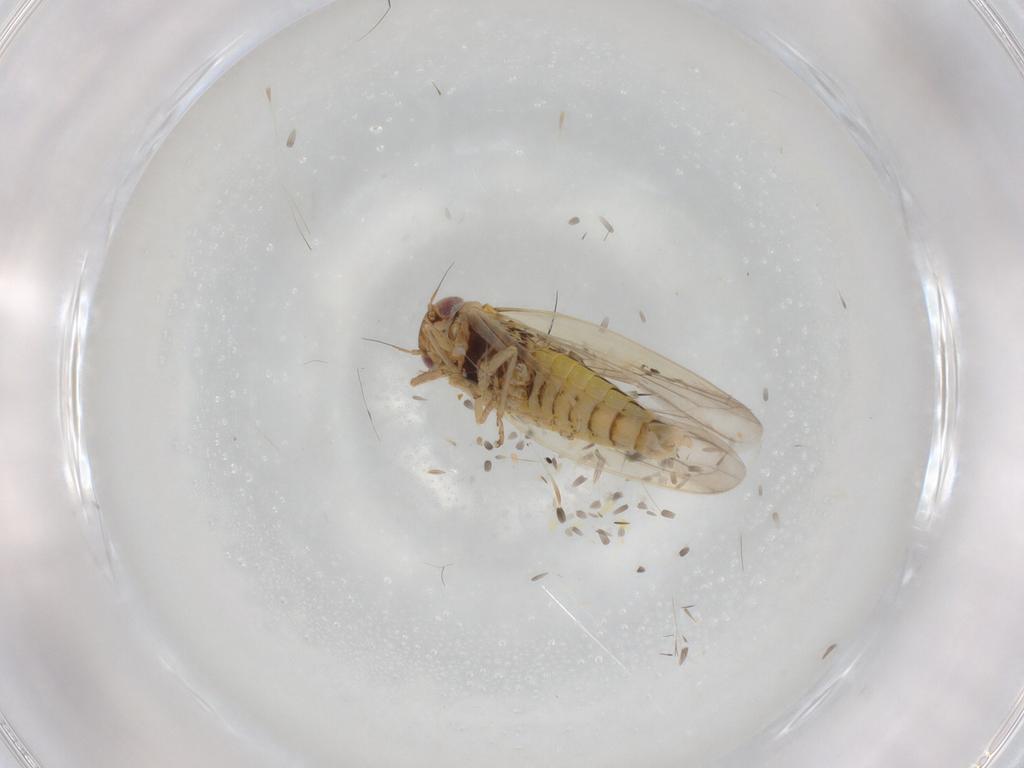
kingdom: Animalia
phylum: Arthropoda
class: Insecta
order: Hemiptera
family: Cicadellidae
